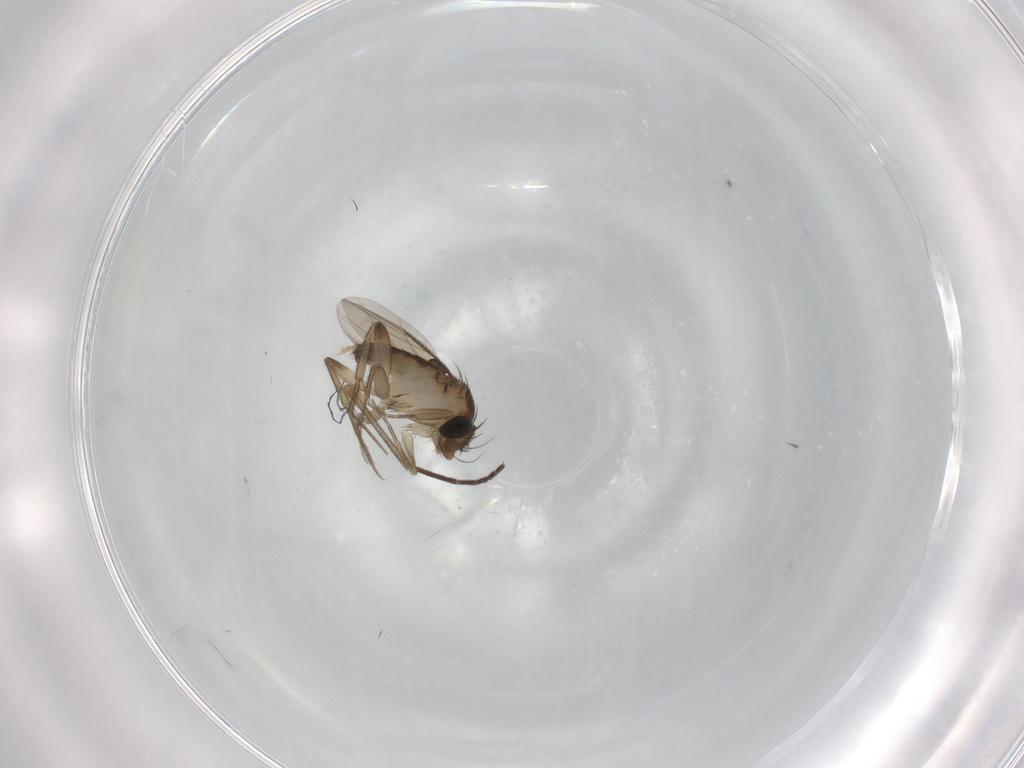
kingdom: Animalia
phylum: Arthropoda
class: Insecta
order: Diptera
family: Phoridae
